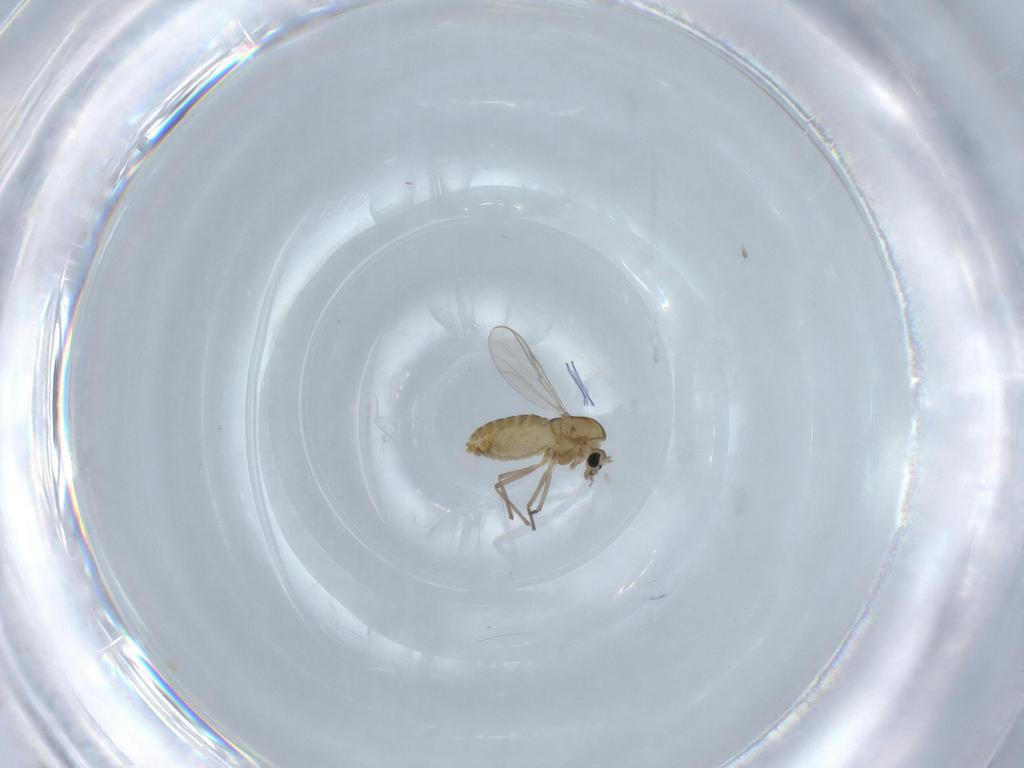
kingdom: Animalia
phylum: Arthropoda
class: Insecta
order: Diptera
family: Chironomidae
